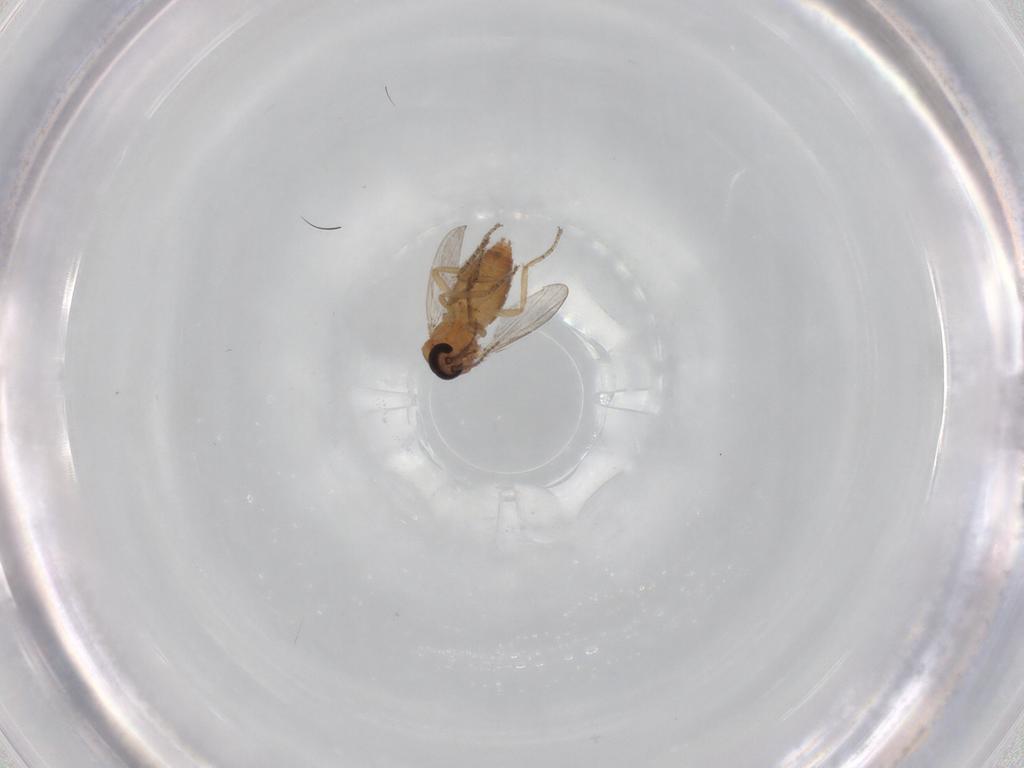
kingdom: Animalia
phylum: Arthropoda
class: Insecta
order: Diptera
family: Ceratopogonidae
